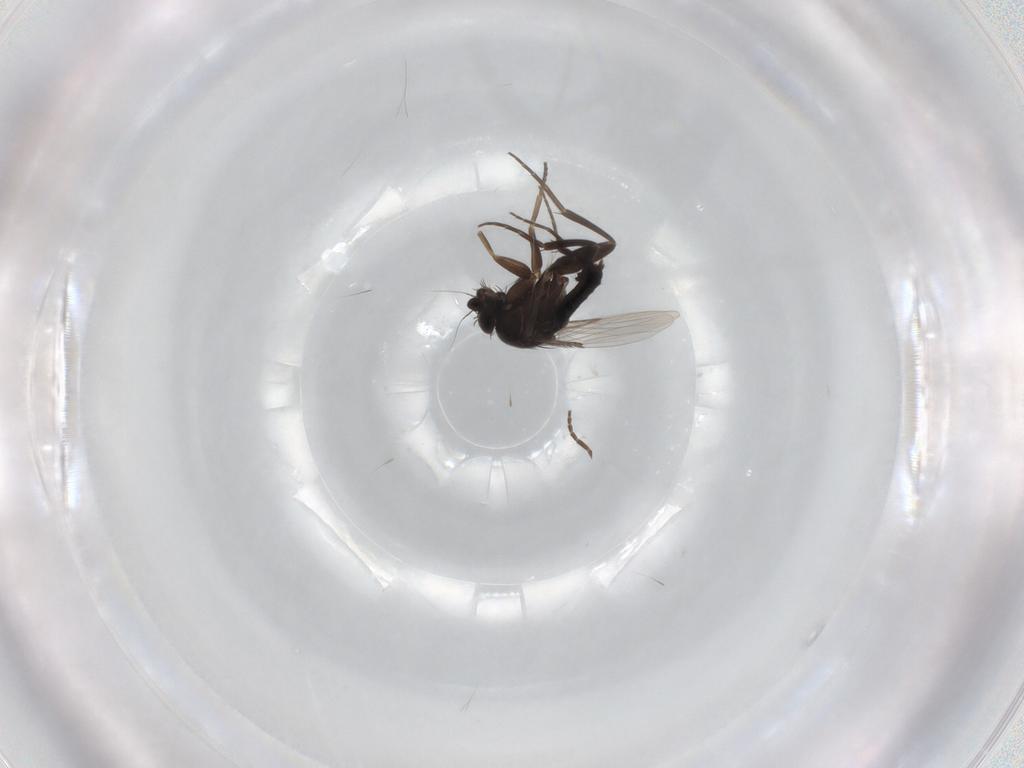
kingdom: Animalia
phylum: Arthropoda
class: Insecta
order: Diptera
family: Phoridae
